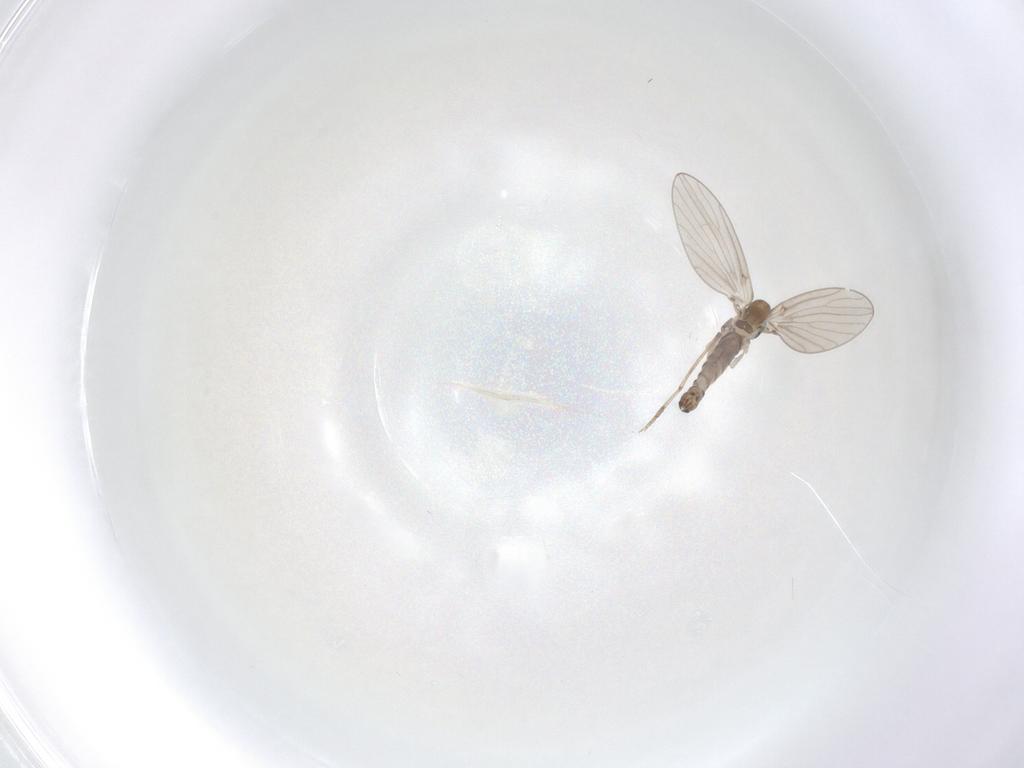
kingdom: Animalia
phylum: Arthropoda
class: Insecta
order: Diptera
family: Psychodidae
